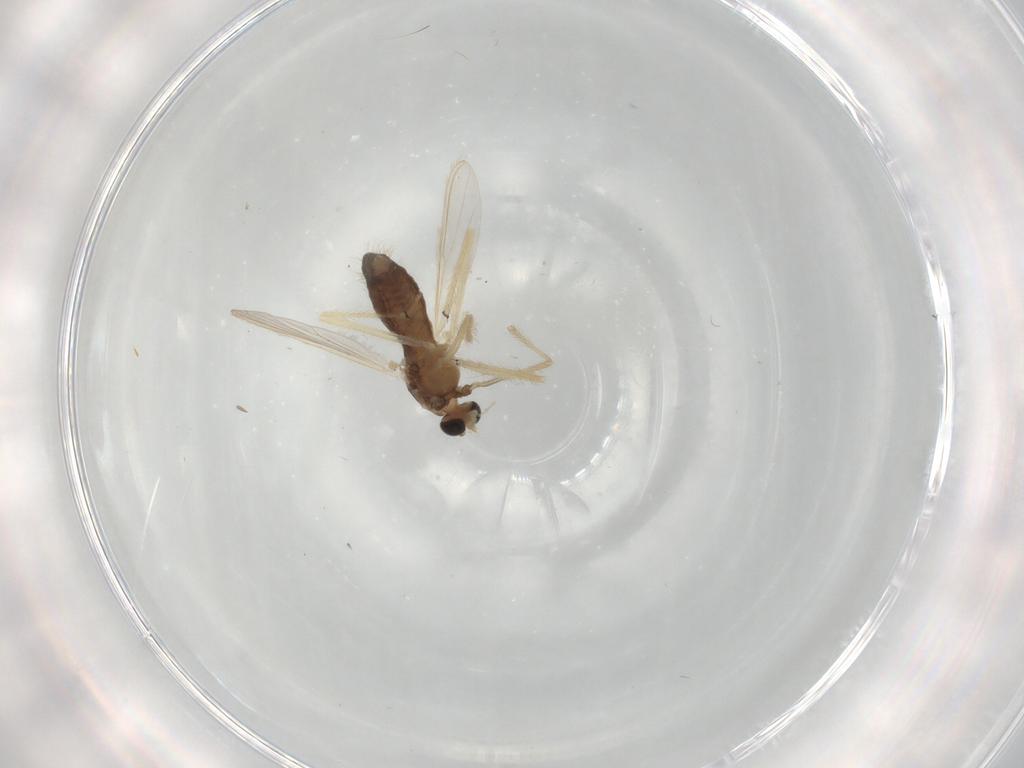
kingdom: Animalia
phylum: Arthropoda
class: Insecta
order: Diptera
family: Chironomidae
